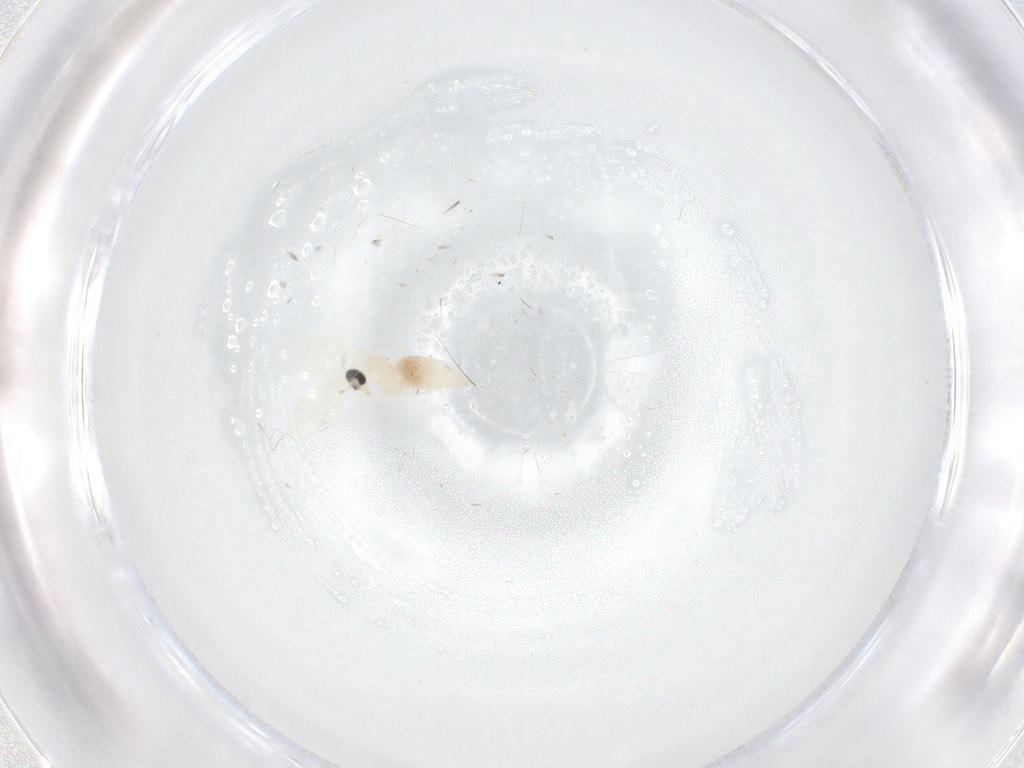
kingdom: Animalia
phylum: Arthropoda
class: Insecta
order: Diptera
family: Cecidomyiidae
